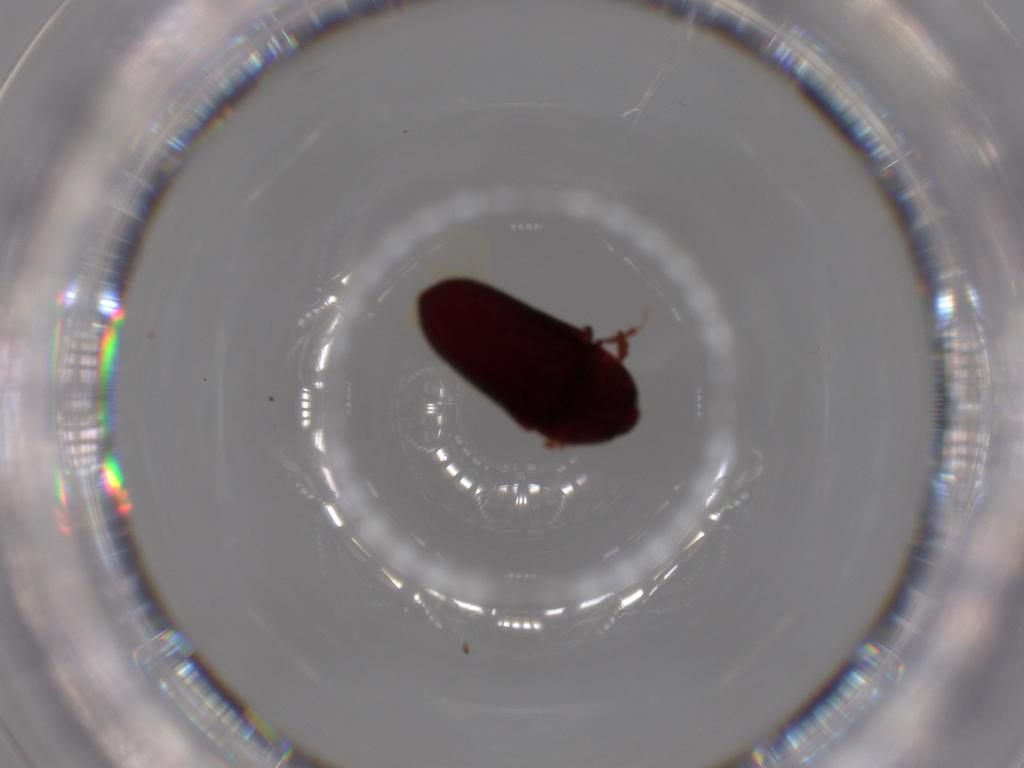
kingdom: Animalia
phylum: Arthropoda
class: Insecta
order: Coleoptera
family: Throscidae
